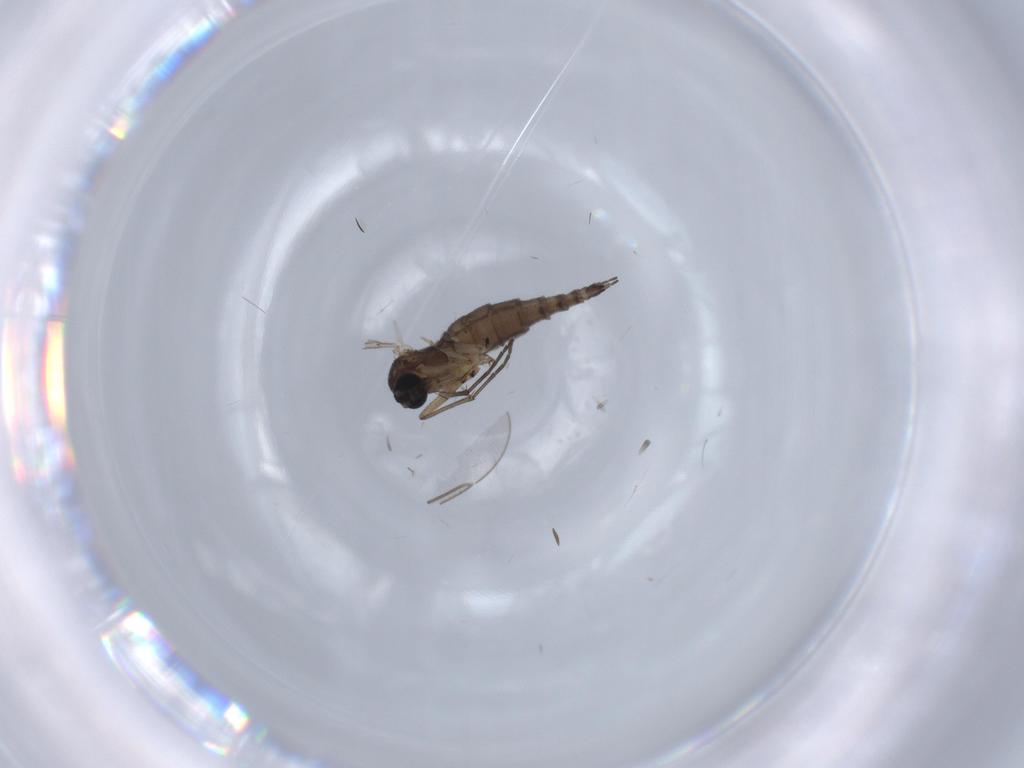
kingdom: Animalia
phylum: Arthropoda
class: Insecta
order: Diptera
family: Sciaridae
